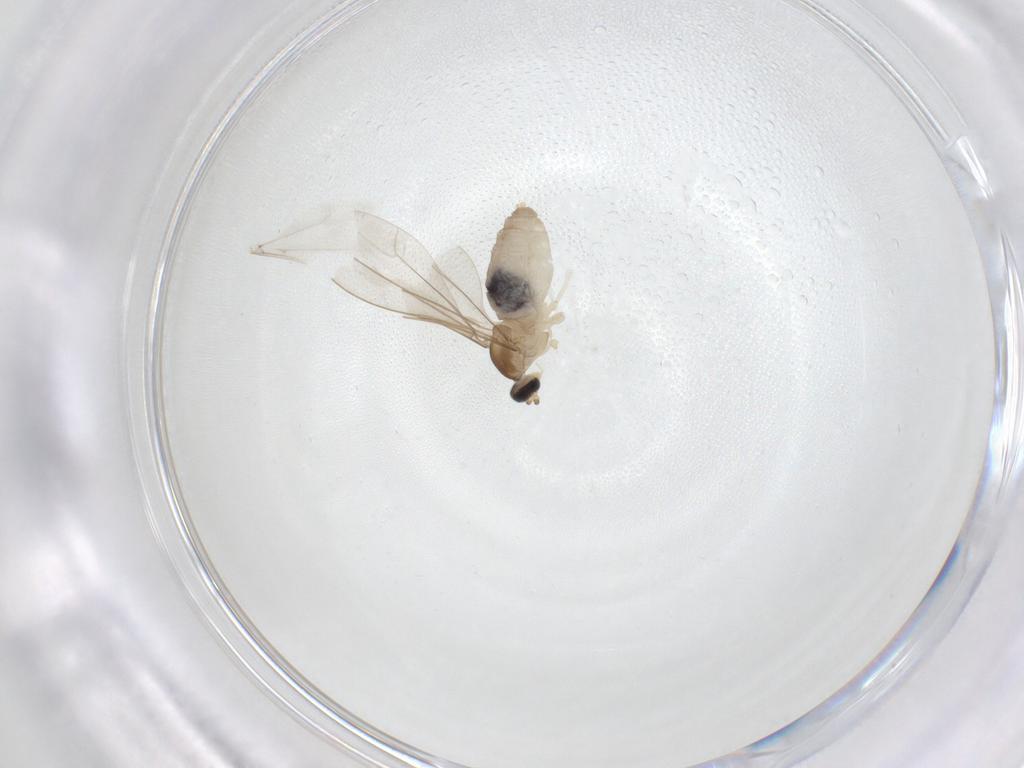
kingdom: Animalia
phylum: Arthropoda
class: Insecta
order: Diptera
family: Cecidomyiidae
